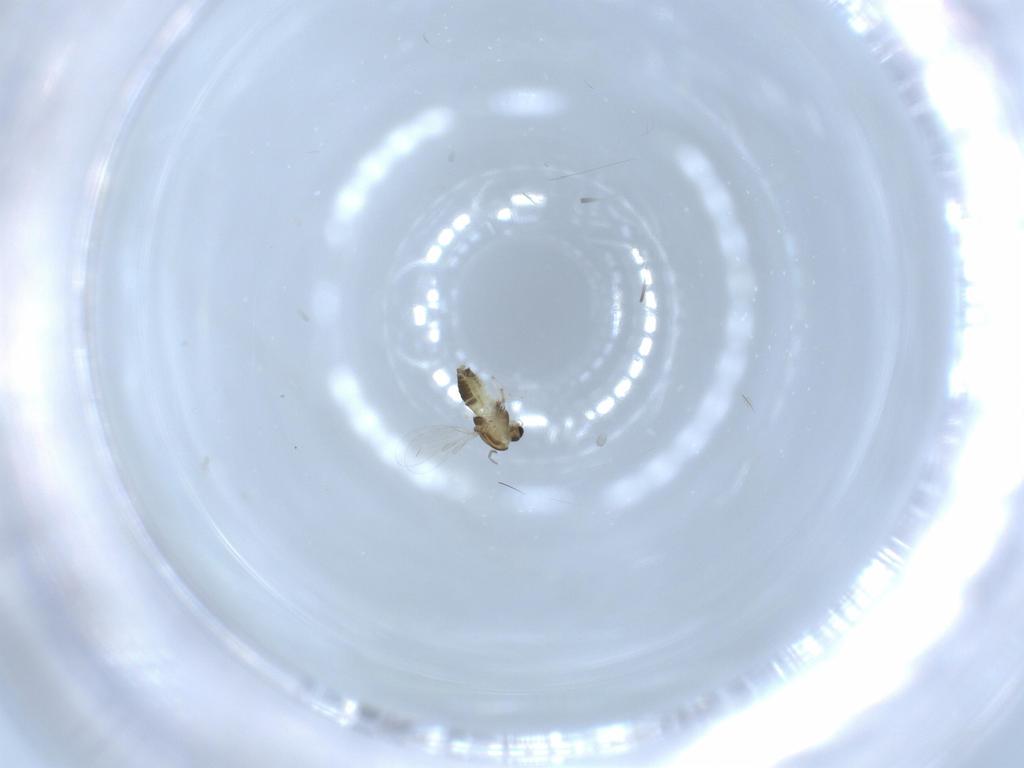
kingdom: Animalia
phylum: Arthropoda
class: Insecta
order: Diptera
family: Chironomidae
